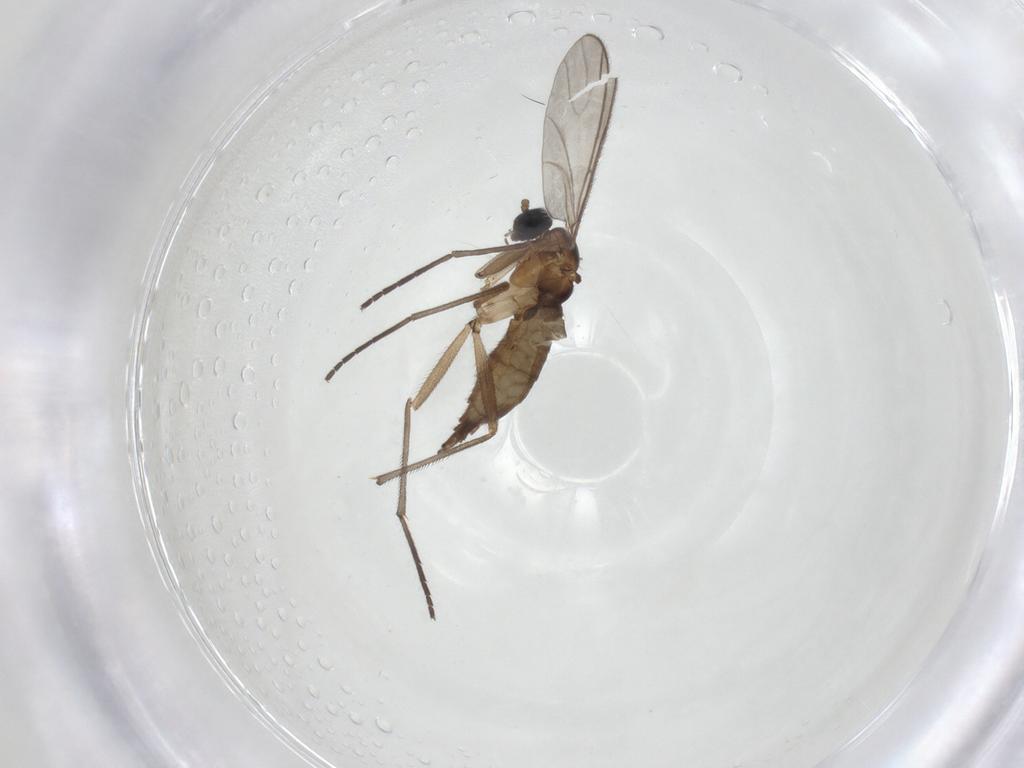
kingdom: Animalia
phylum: Arthropoda
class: Insecta
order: Diptera
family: Sciaridae
